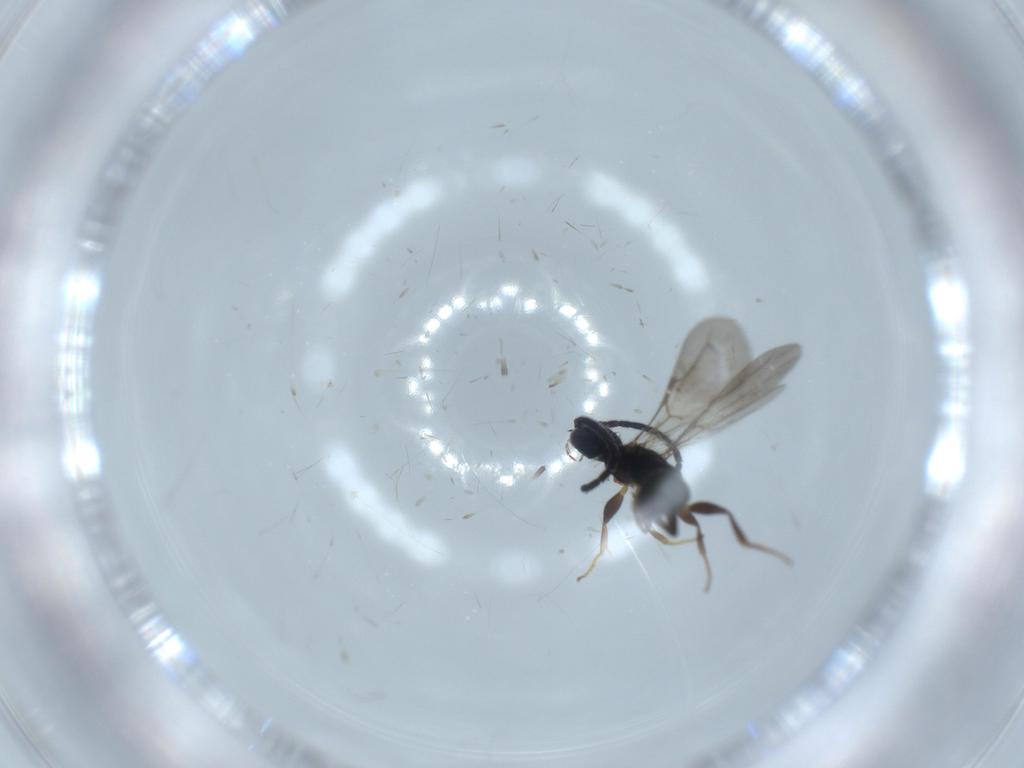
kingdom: Animalia
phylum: Arthropoda
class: Insecta
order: Hymenoptera
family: Bethylidae
